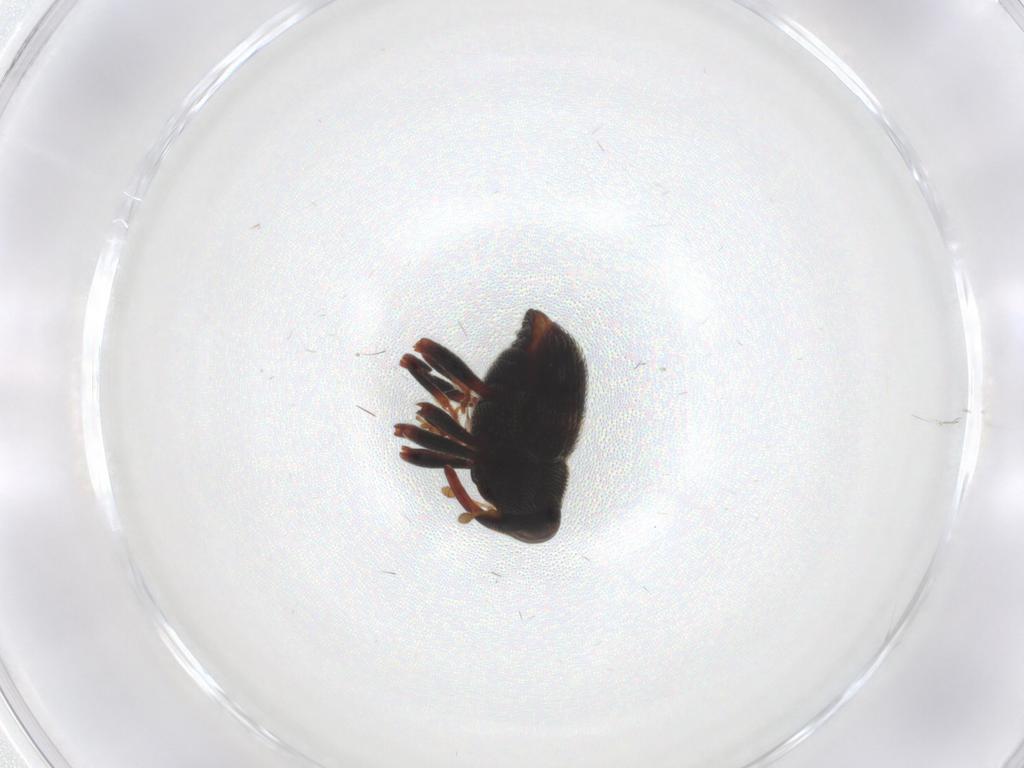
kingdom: Animalia
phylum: Arthropoda
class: Insecta
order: Coleoptera
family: Curculionidae
